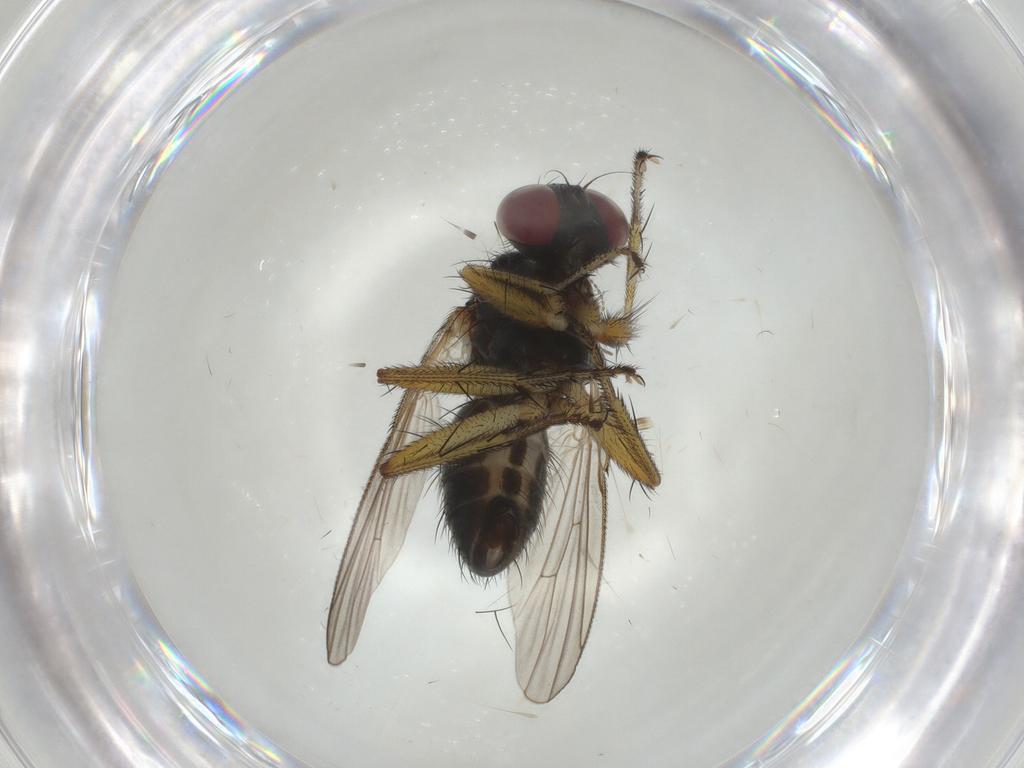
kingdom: Animalia
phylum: Arthropoda
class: Insecta
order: Diptera
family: Muscidae
